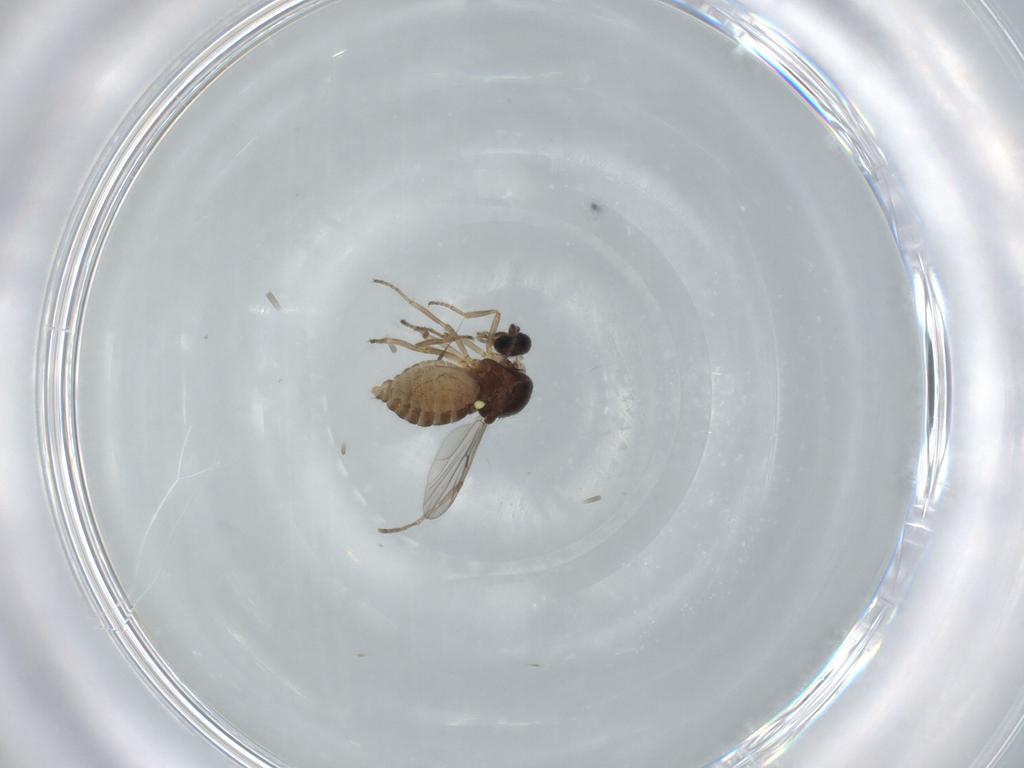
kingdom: Animalia
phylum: Arthropoda
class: Insecta
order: Diptera
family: Ceratopogonidae
